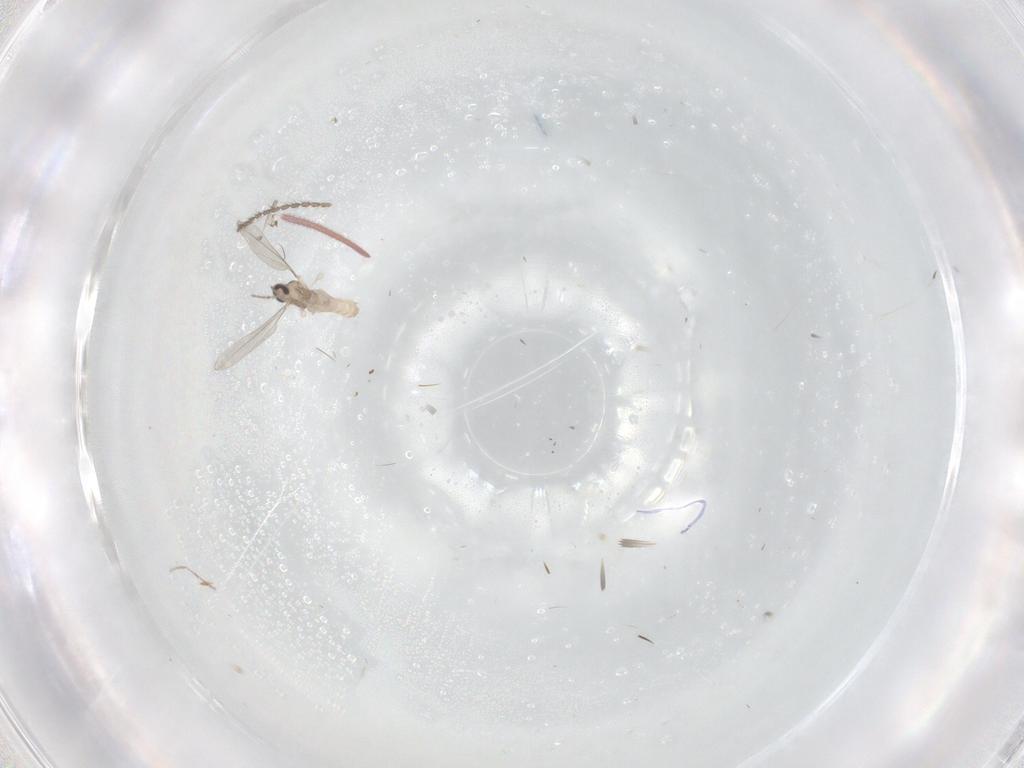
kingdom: Animalia
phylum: Arthropoda
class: Insecta
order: Diptera
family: Cecidomyiidae
